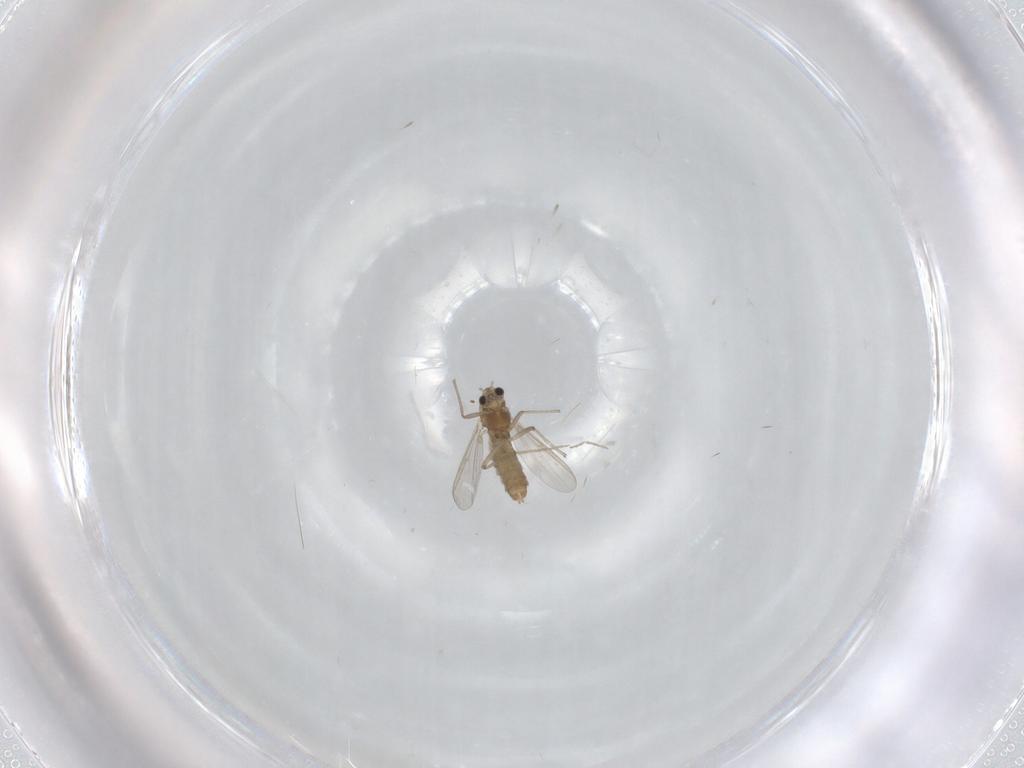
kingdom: Animalia
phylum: Arthropoda
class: Insecta
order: Diptera
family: Chironomidae
